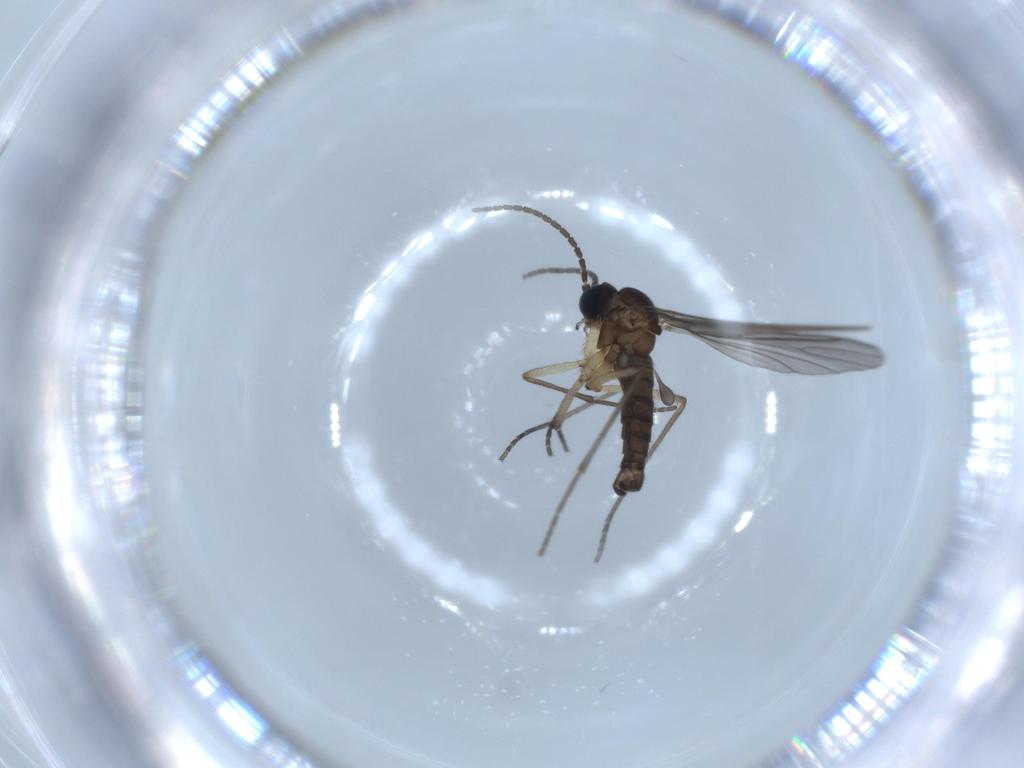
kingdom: Animalia
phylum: Arthropoda
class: Insecta
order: Diptera
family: Sciaridae
